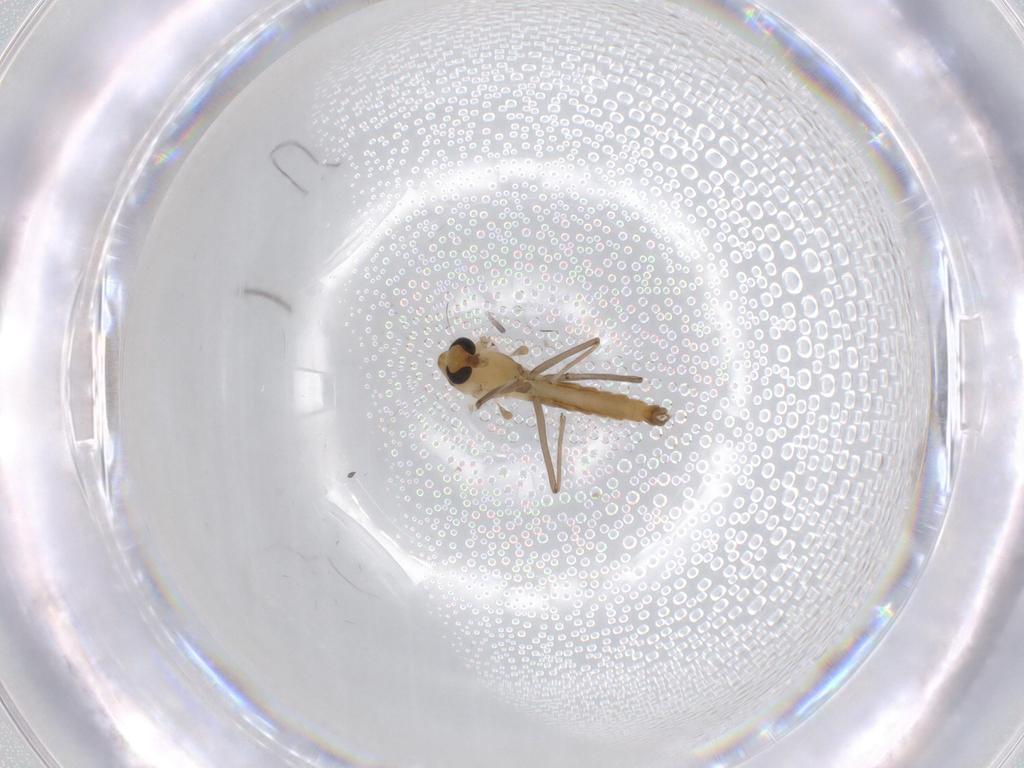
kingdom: Animalia
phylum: Arthropoda
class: Insecta
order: Diptera
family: Chironomidae
